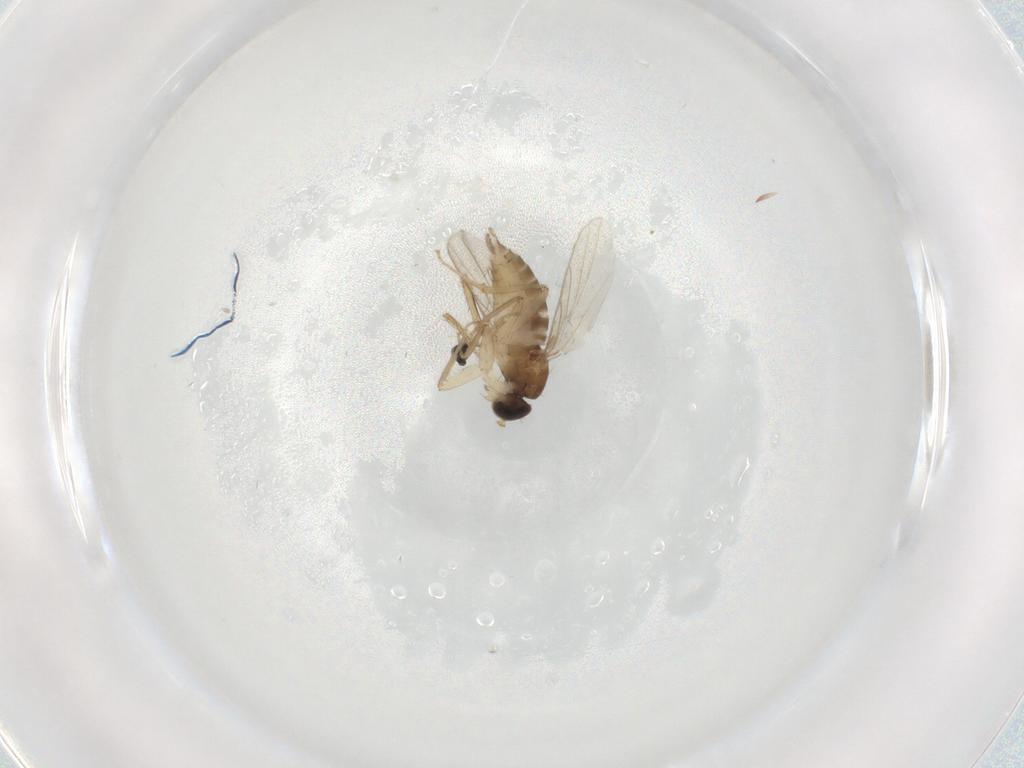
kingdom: Animalia
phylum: Arthropoda
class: Insecta
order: Diptera
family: Hybotidae
